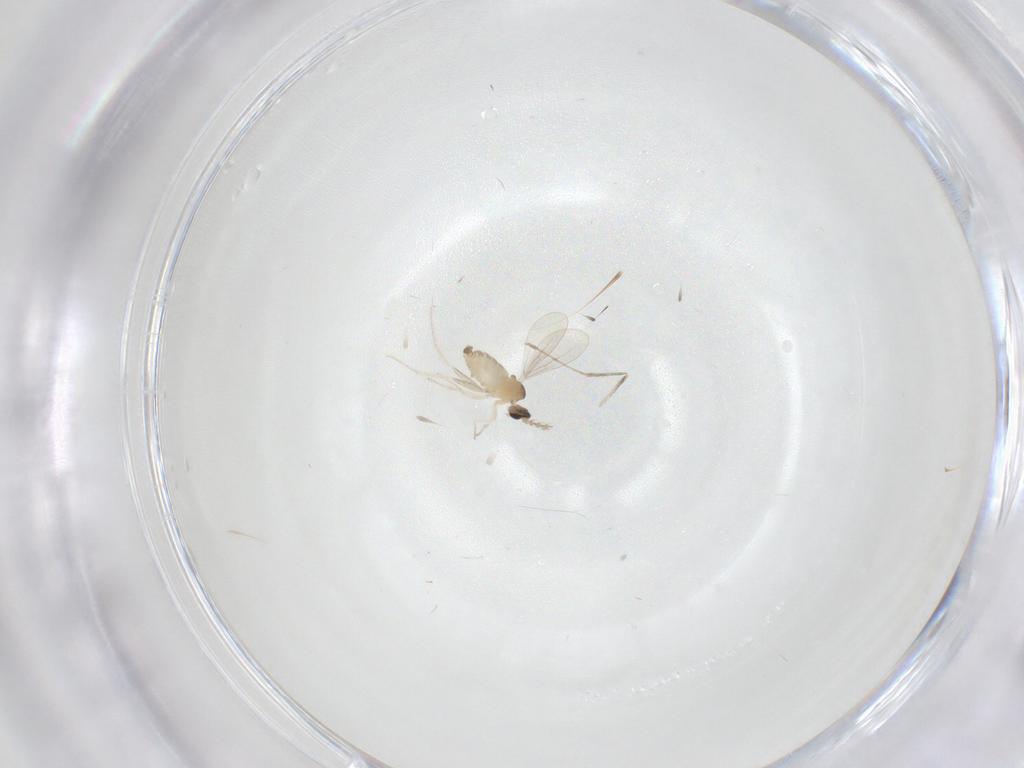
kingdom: Animalia
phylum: Arthropoda
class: Insecta
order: Diptera
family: Cecidomyiidae
